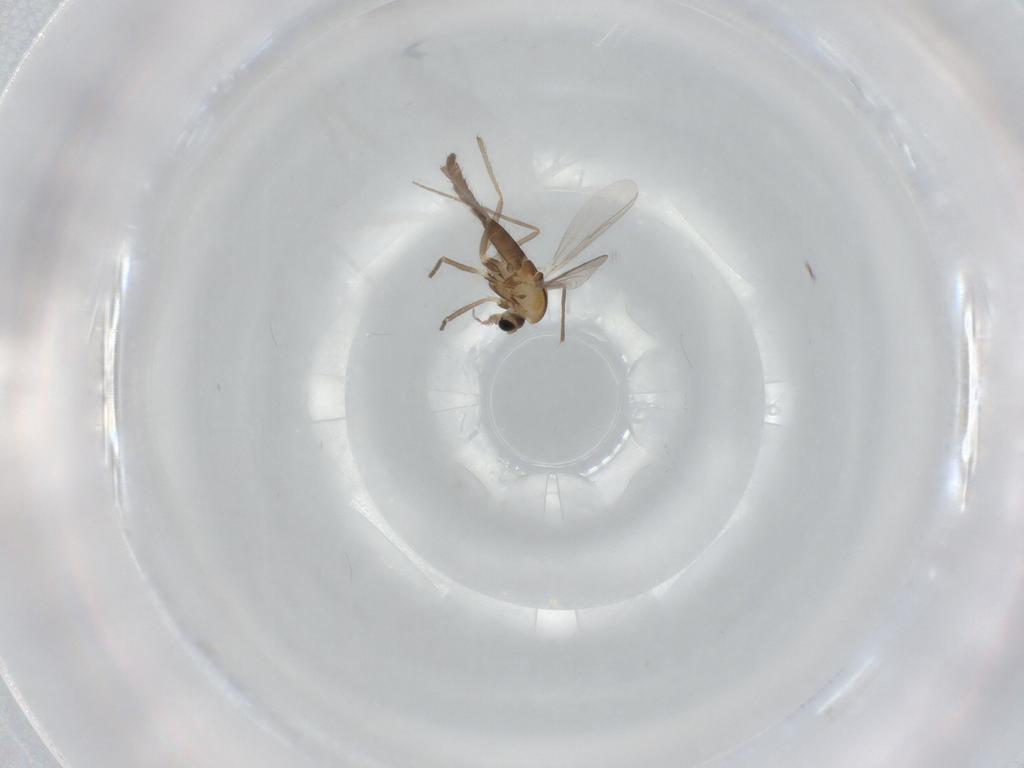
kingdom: Animalia
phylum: Arthropoda
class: Insecta
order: Diptera
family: Chironomidae
